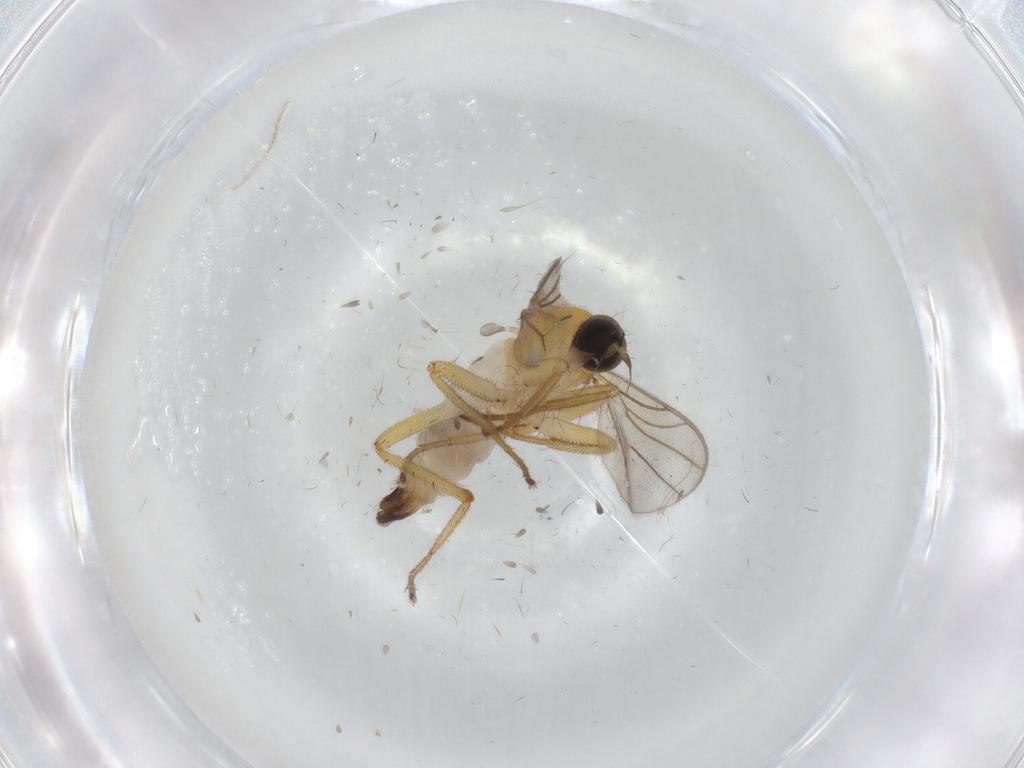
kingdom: Animalia
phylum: Arthropoda
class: Insecta
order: Diptera
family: Hybotidae
